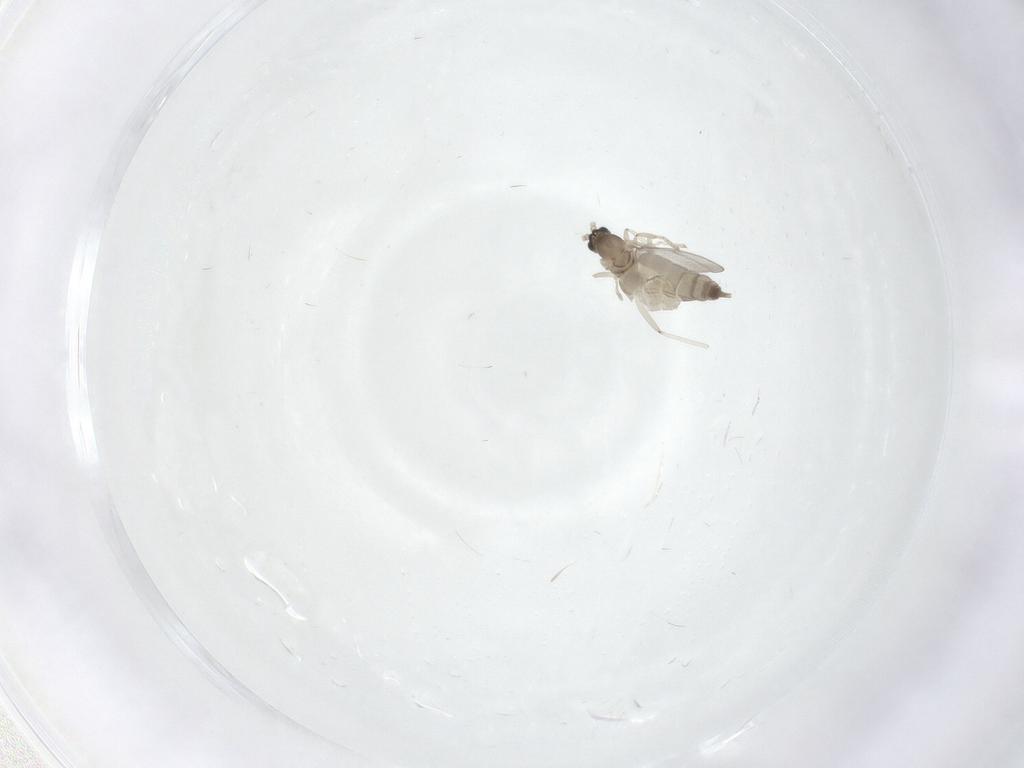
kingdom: Animalia
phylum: Arthropoda
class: Insecta
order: Diptera
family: Cecidomyiidae
